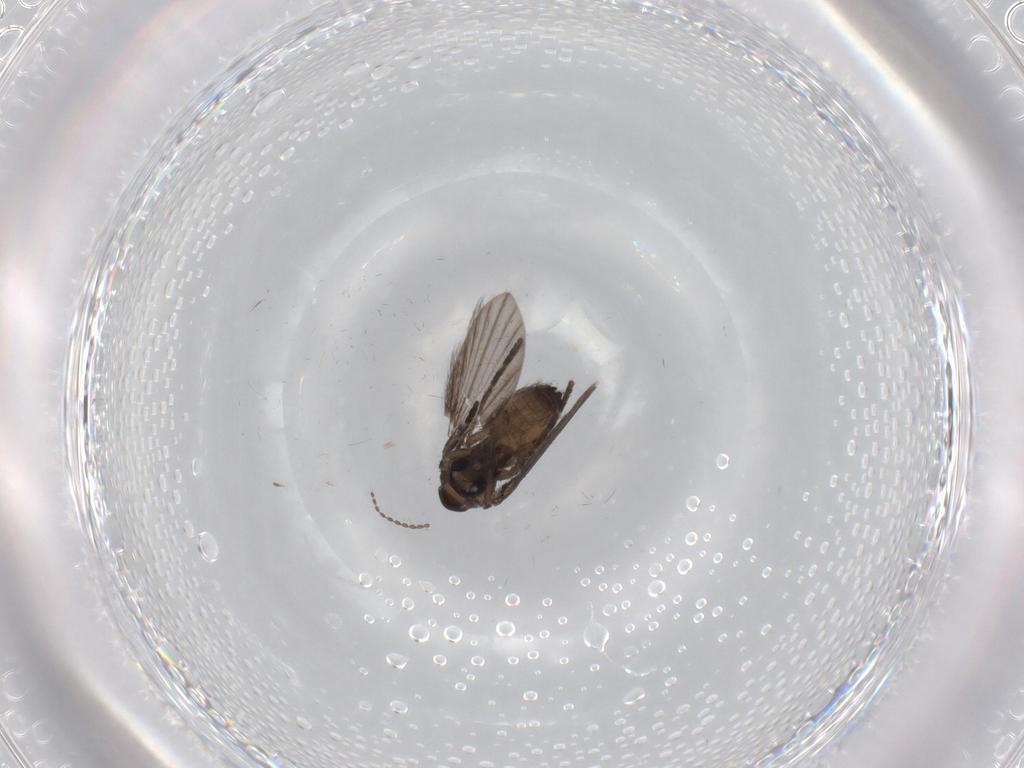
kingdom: Animalia
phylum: Arthropoda
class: Insecta
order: Diptera
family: Psychodidae
